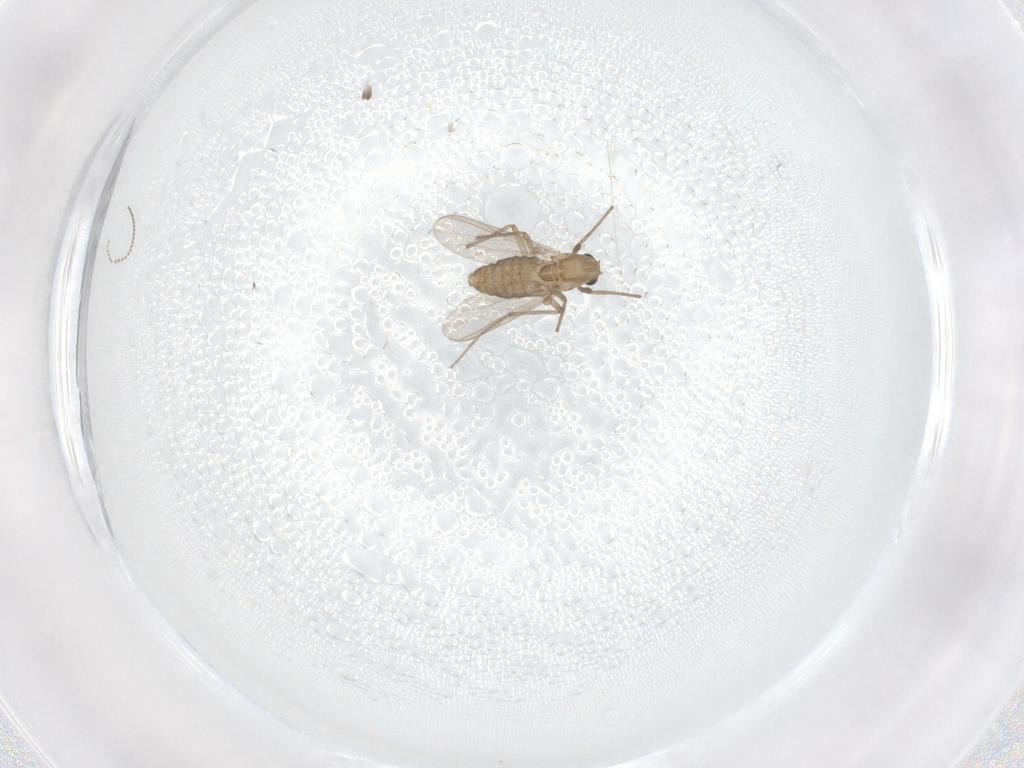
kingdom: Animalia
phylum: Arthropoda
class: Insecta
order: Diptera
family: Chironomidae
